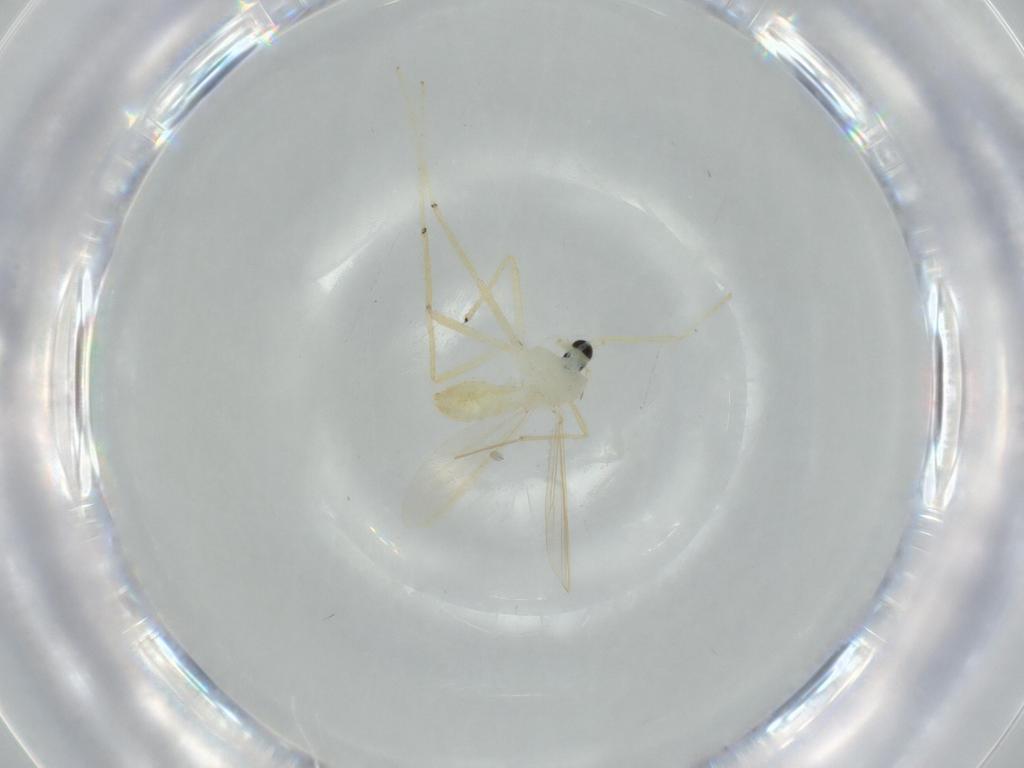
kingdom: Animalia
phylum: Arthropoda
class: Insecta
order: Diptera
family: Chironomidae
